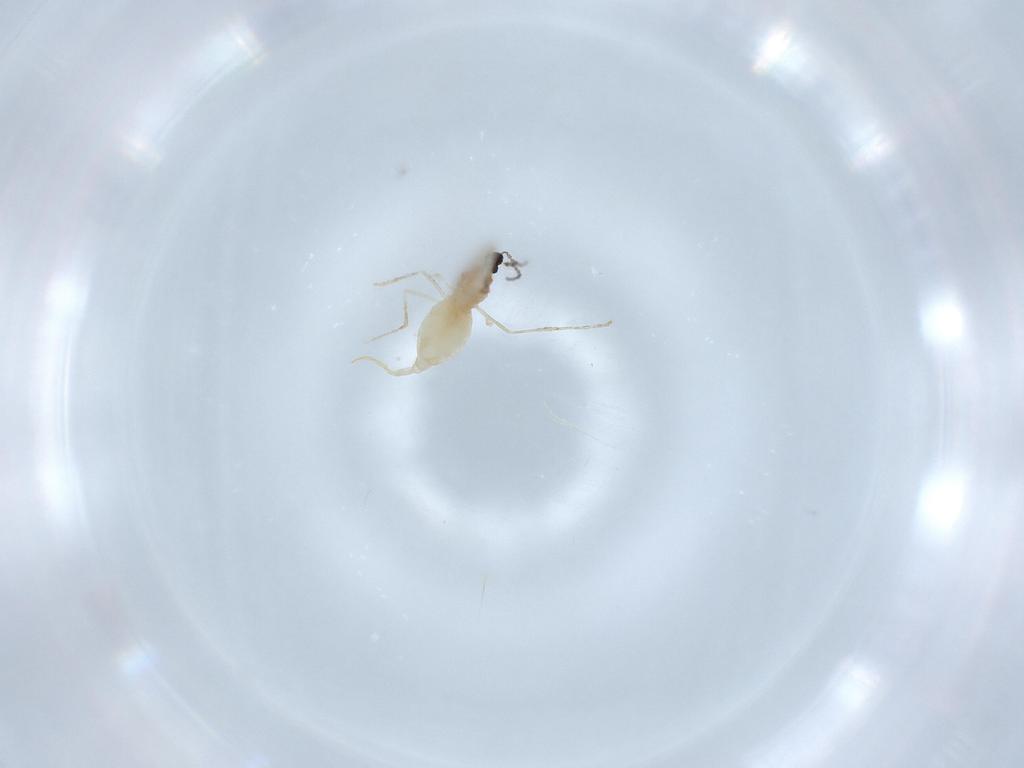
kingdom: Animalia
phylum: Arthropoda
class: Insecta
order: Diptera
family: Cecidomyiidae
